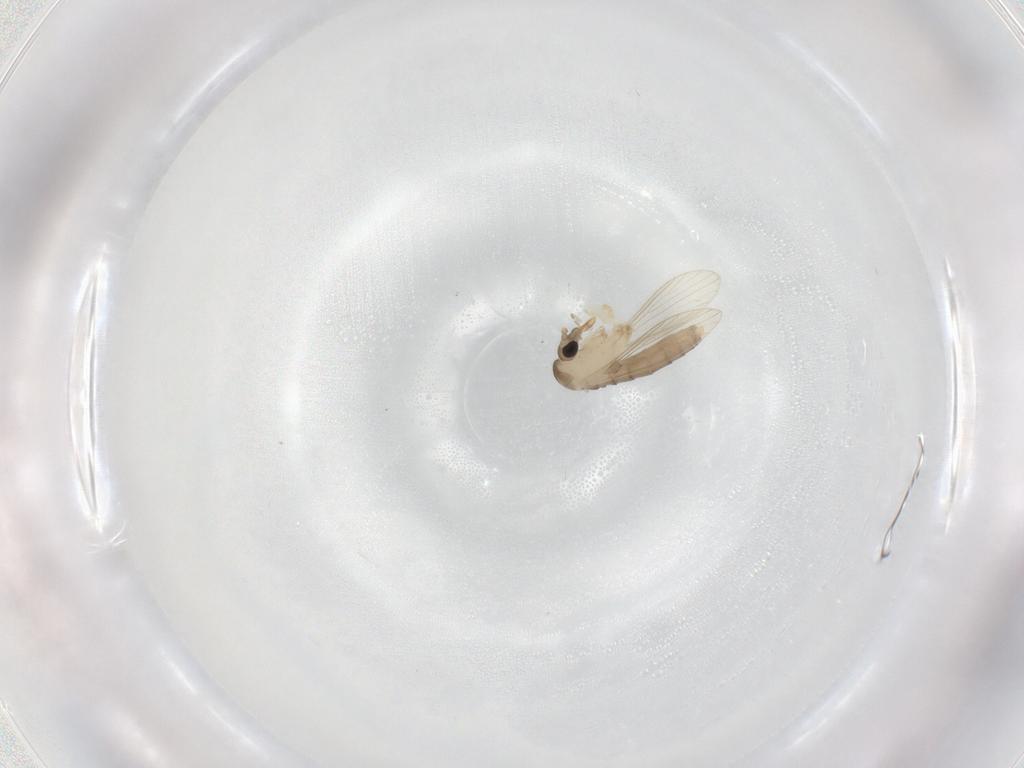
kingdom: Animalia
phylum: Arthropoda
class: Insecta
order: Diptera
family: Psychodidae
